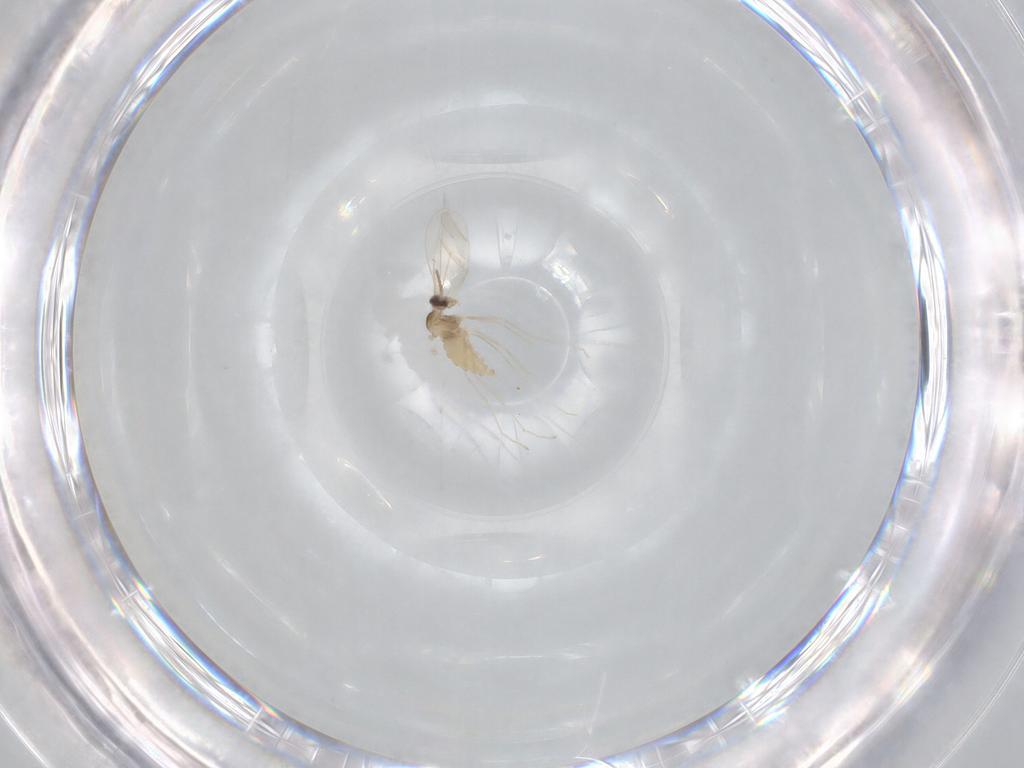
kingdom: Animalia
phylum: Arthropoda
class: Insecta
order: Diptera
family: Cecidomyiidae
